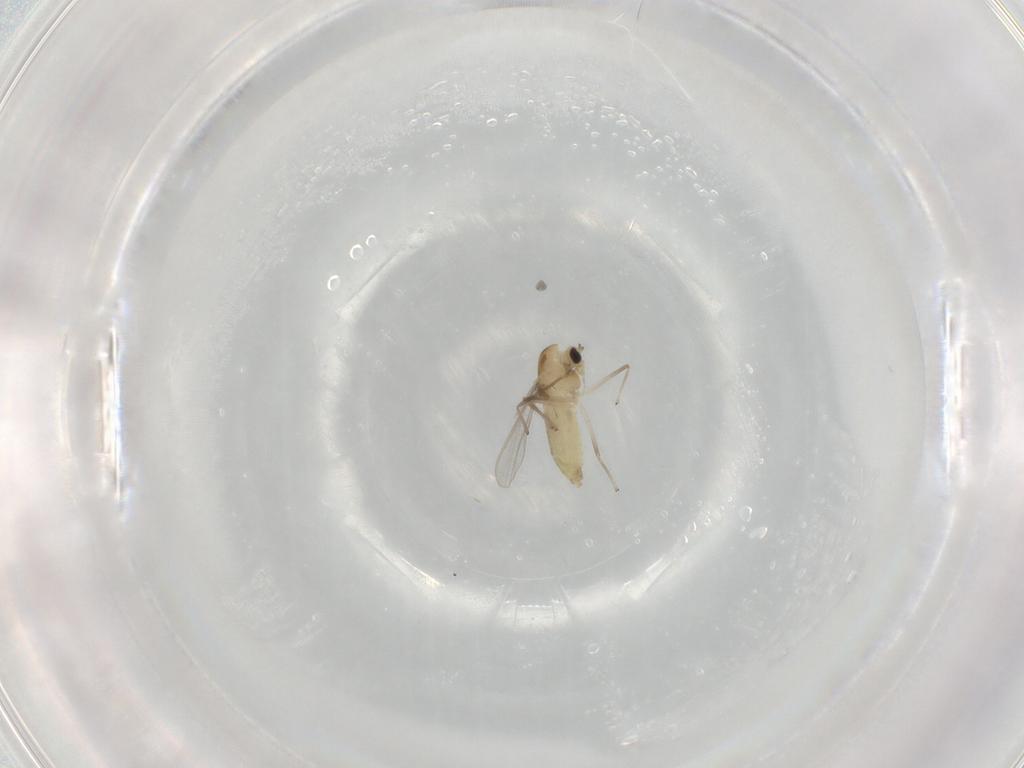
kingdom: Animalia
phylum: Arthropoda
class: Insecta
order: Diptera
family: Chironomidae
